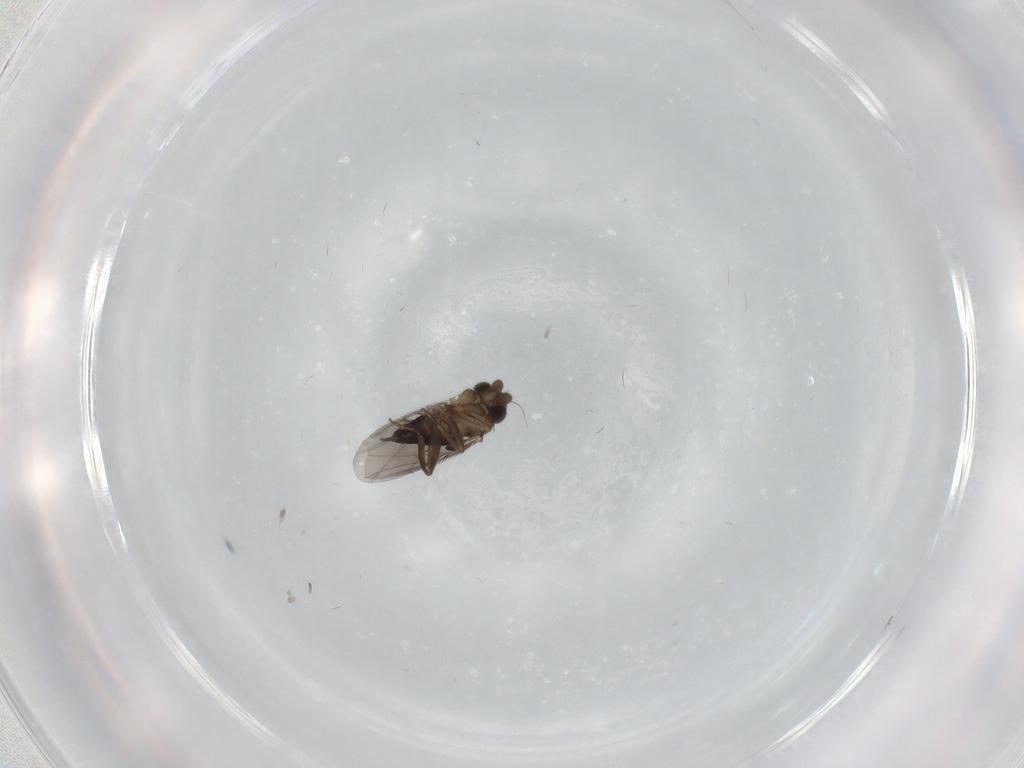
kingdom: Animalia
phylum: Arthropoda
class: Insecta
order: Diptera
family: Phoridae
